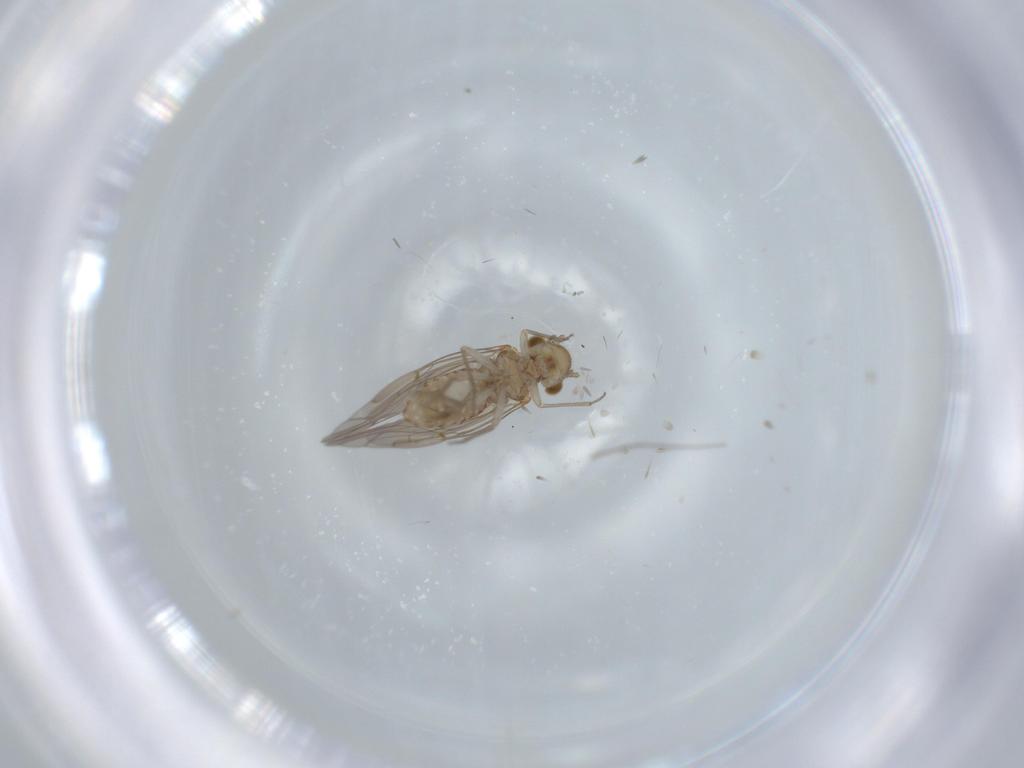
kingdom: Animalia
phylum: Arthropoda
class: Insecta
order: Psocodea
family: Lachesillidae
